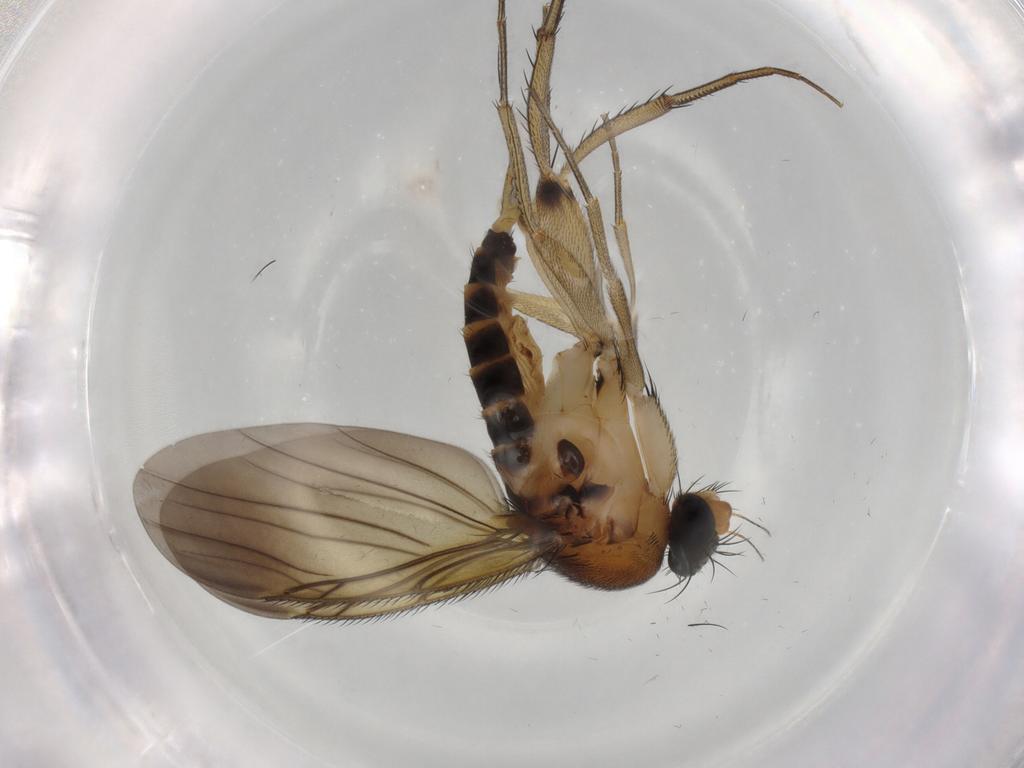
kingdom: Animalia
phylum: Arthropoda
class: Insecta
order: Diptera
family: Phoridae
